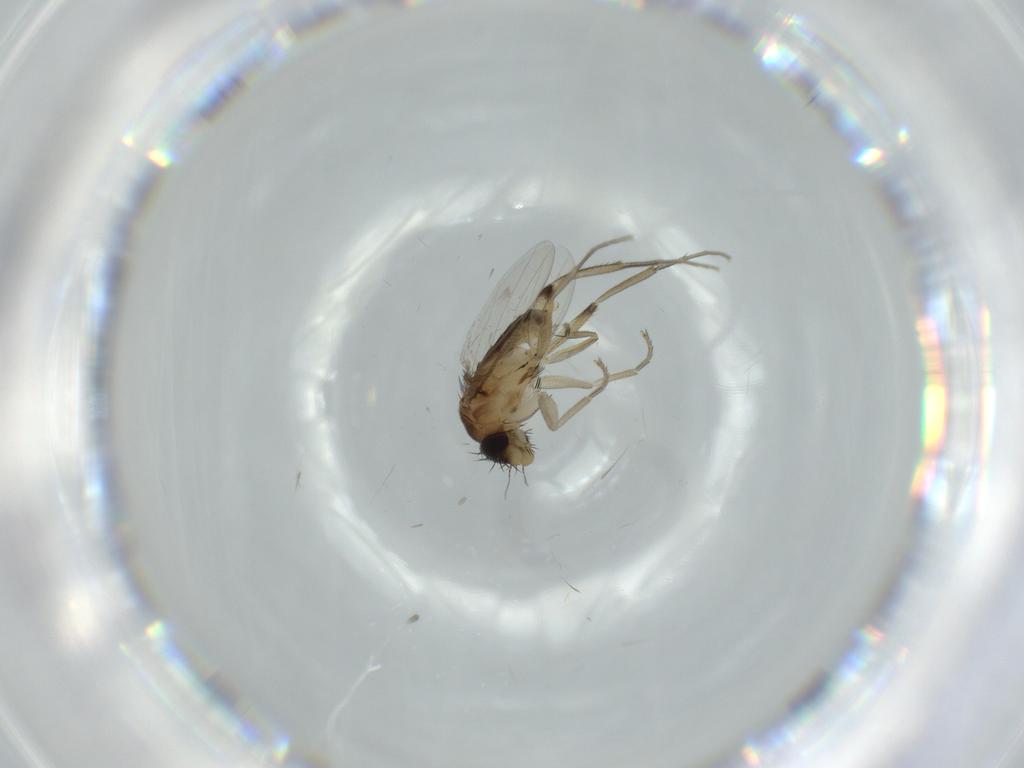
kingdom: Animalia
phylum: Arthropoda
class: Insecta
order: Diptera
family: Phoridae
